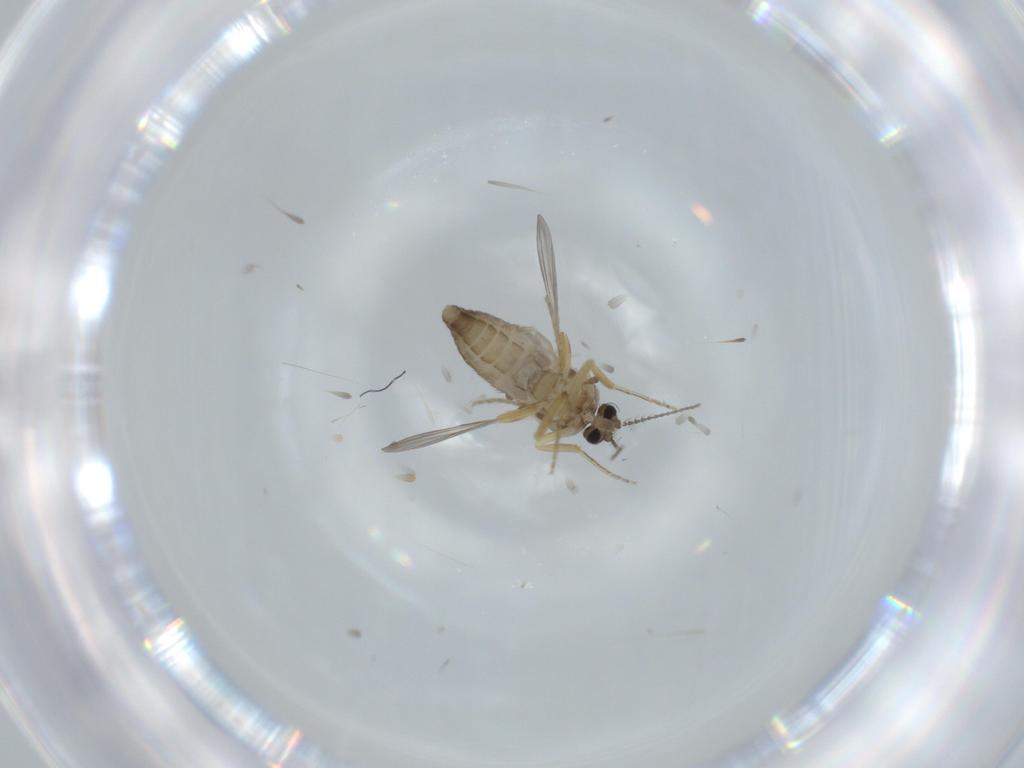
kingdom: Animalia
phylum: Arthropoda
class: Insecta
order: Diptera
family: Ceratopogonidae
